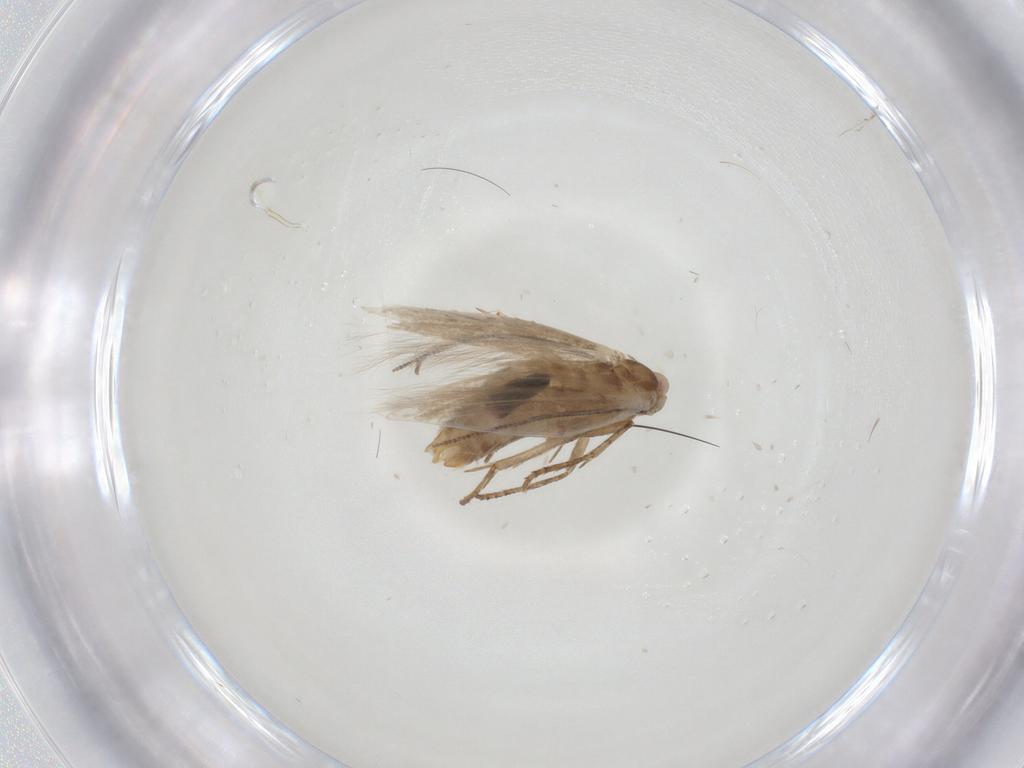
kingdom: Animalia
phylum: Arthropoda
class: Insecta
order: Lepidoptera
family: Bucculatricidae
